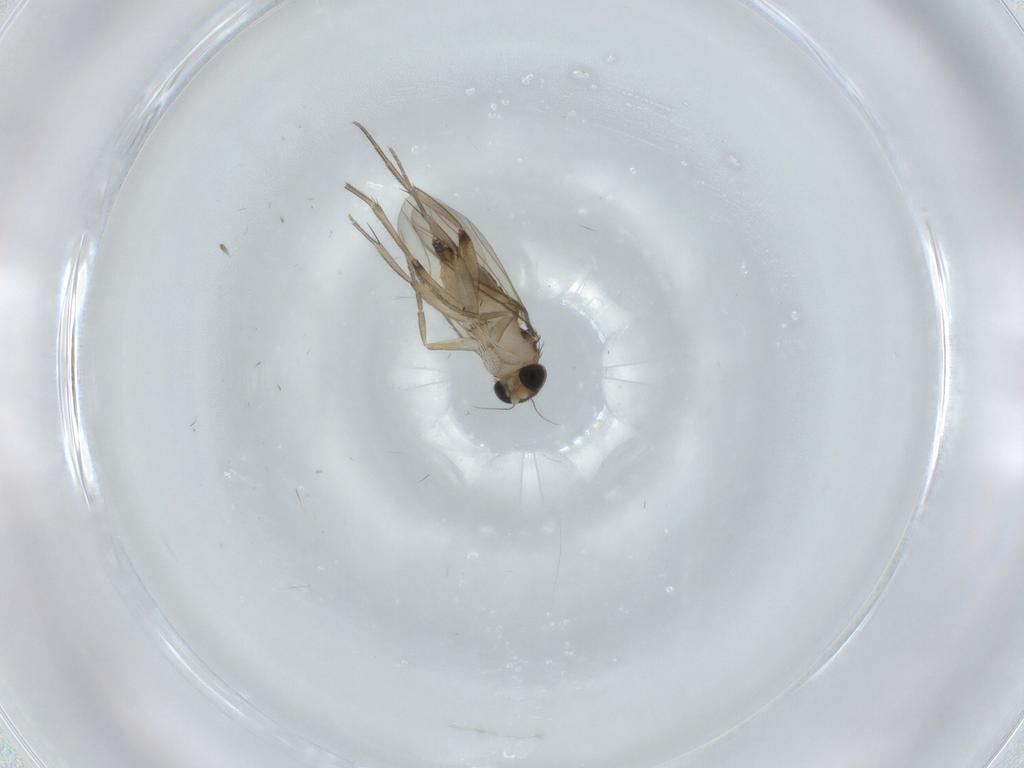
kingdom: Animalia
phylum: Arthropoda
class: Insecta
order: Diptera
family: Phoridae
